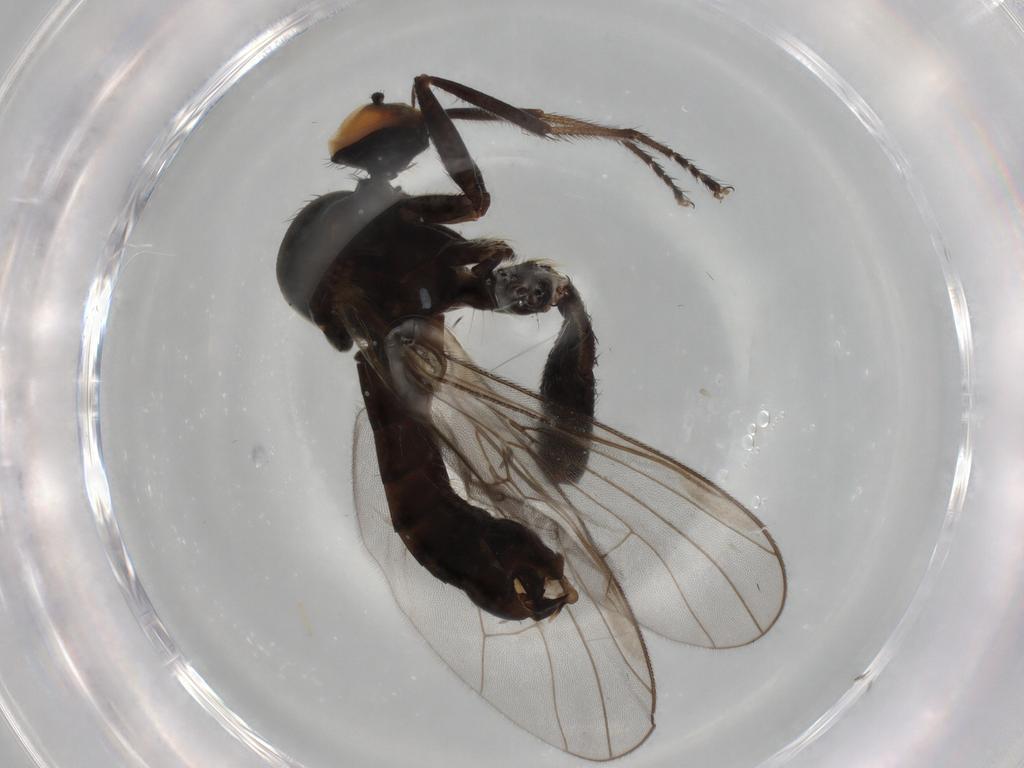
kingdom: Animalia
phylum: Arthropoda
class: Insecta
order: Diptera
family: Hybotidae
